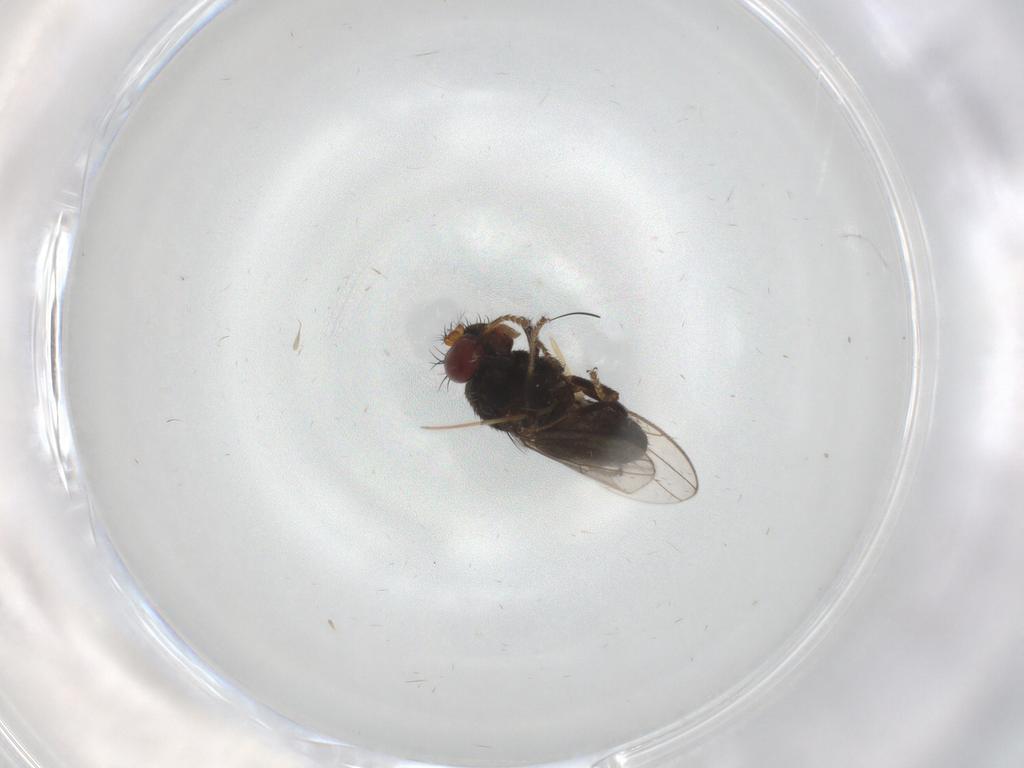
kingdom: Animalia
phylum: Arthropoda
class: Insecta
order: Diptera
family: Ephydridae
